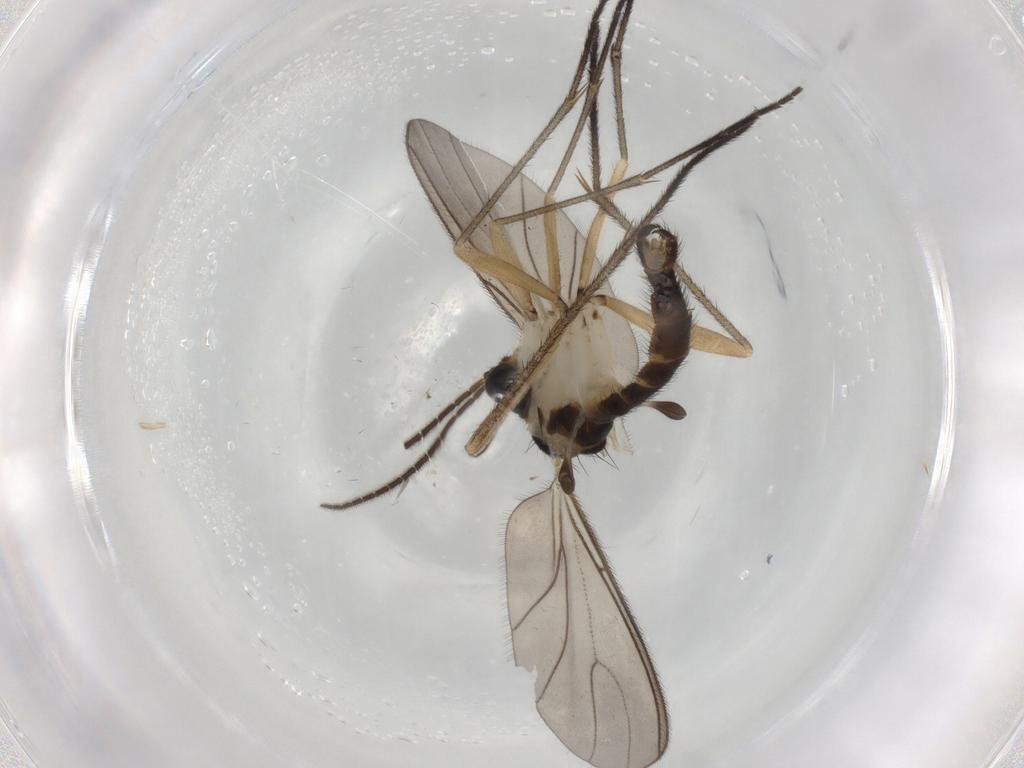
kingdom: Animalia
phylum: Arthropoda
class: Insecta
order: Diptera
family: Sciaridae
